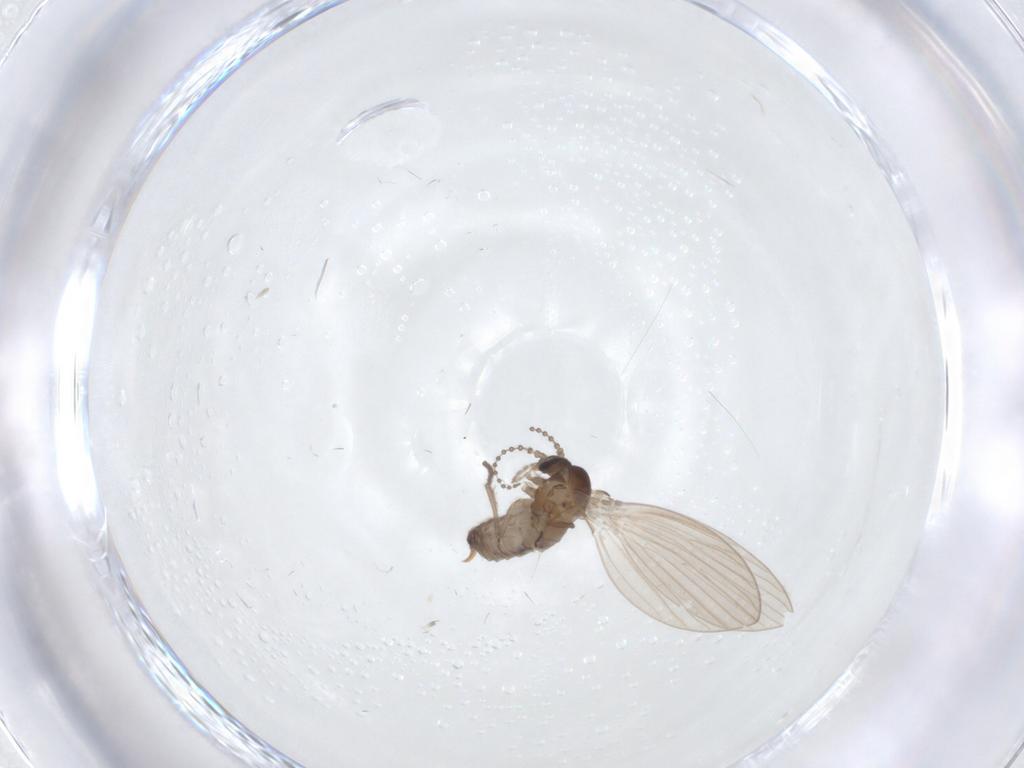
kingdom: Animalia
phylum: Arthropoda
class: Insecta
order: Diptera
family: Psychodidae
